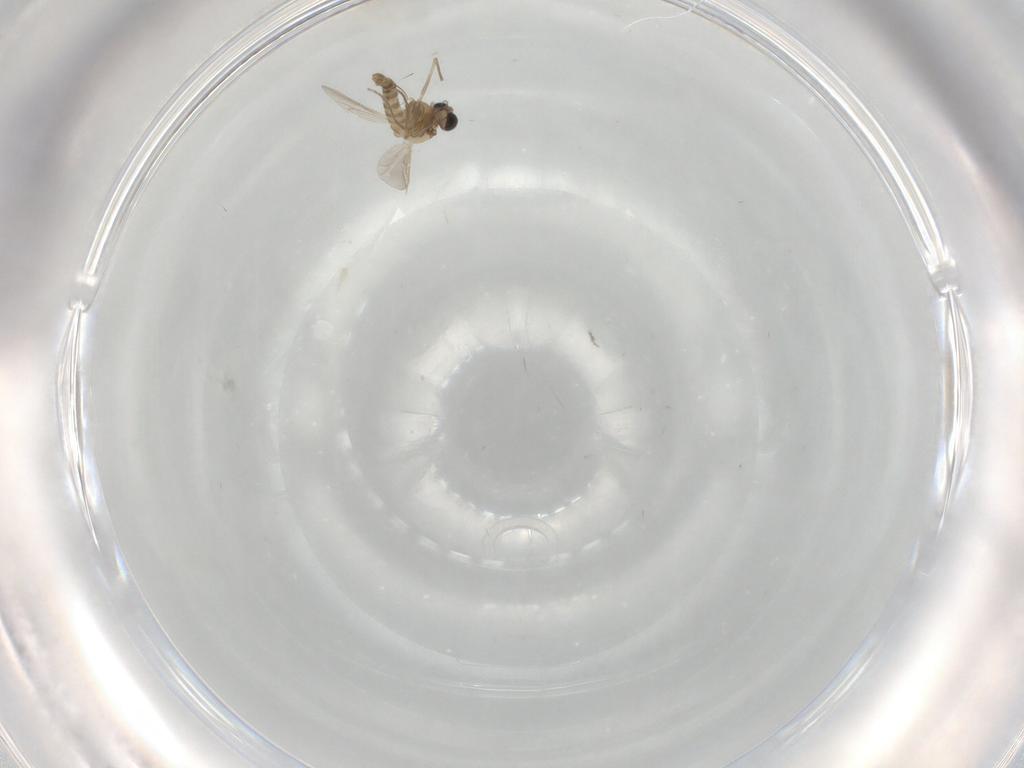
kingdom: Animalia
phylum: Arthropoda
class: Insecta
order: Diptera
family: Chironomidae
